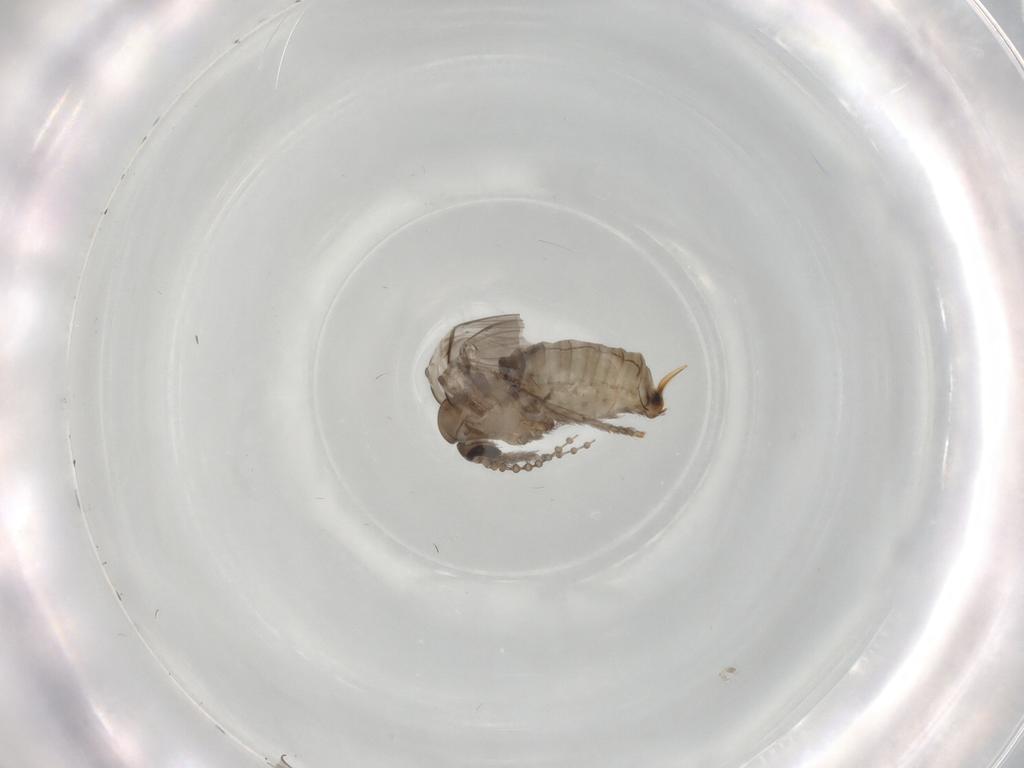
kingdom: Animalia
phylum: Arthropoda
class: Insecta
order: Diptera
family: Psychodidae
